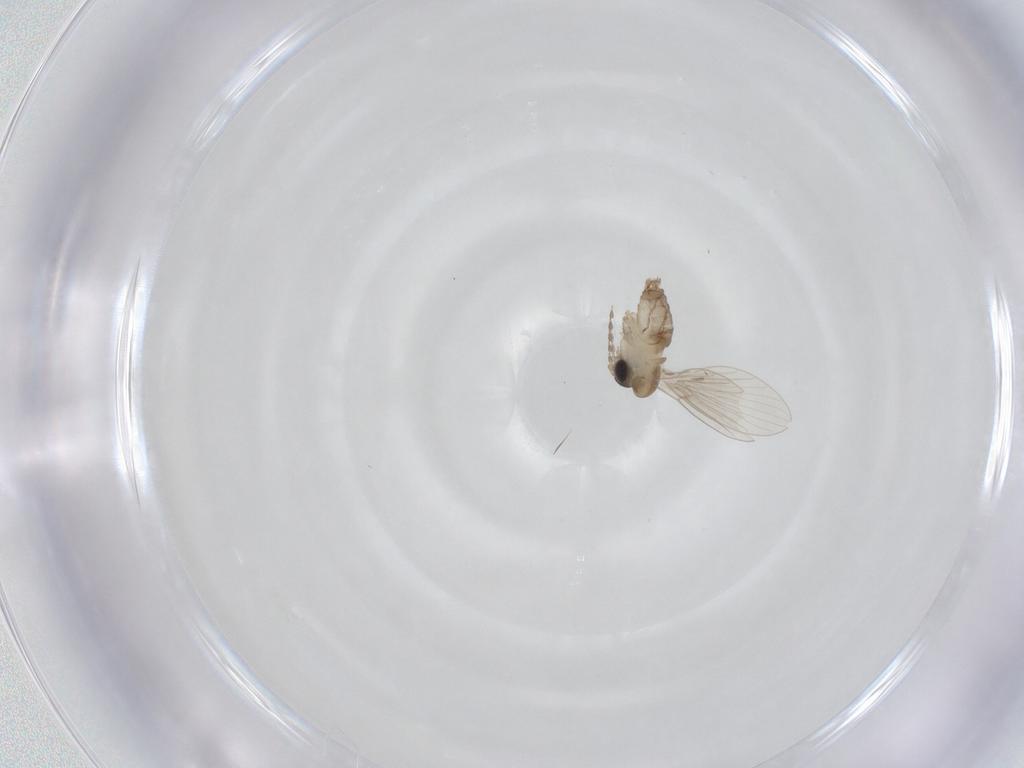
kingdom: Animalia
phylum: Arthropoda
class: Insecta
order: Diptera
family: Psychodidae
